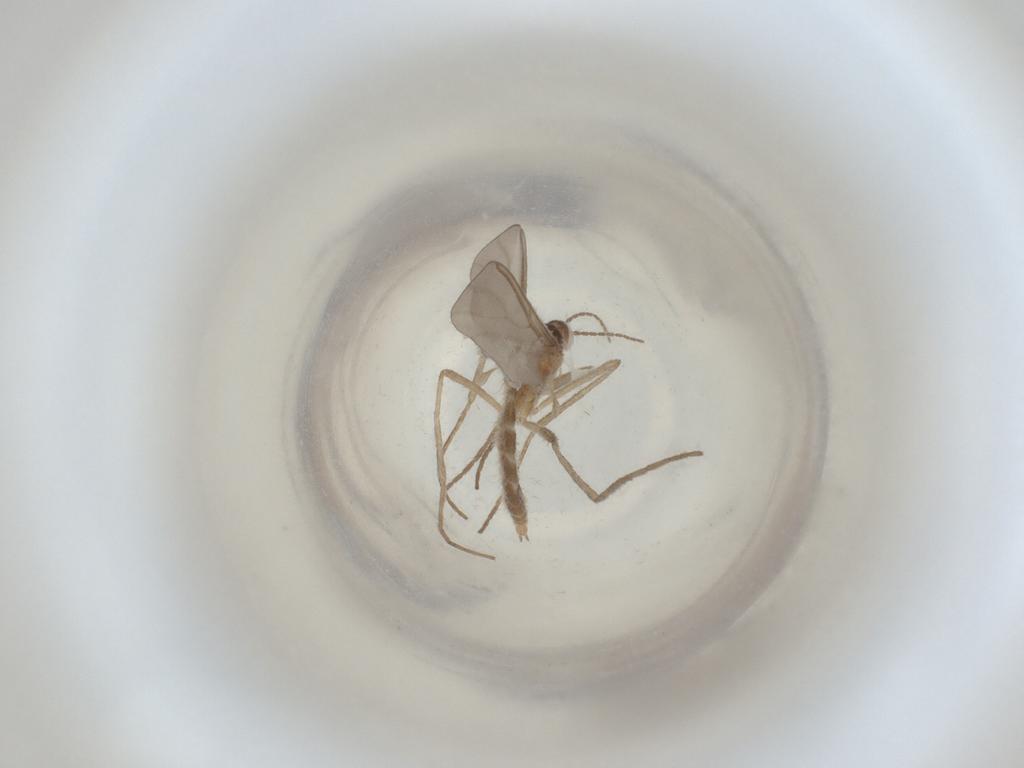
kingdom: Animalia
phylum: Arthropoda
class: Insecta
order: Diptera
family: Cecidomyiidae
